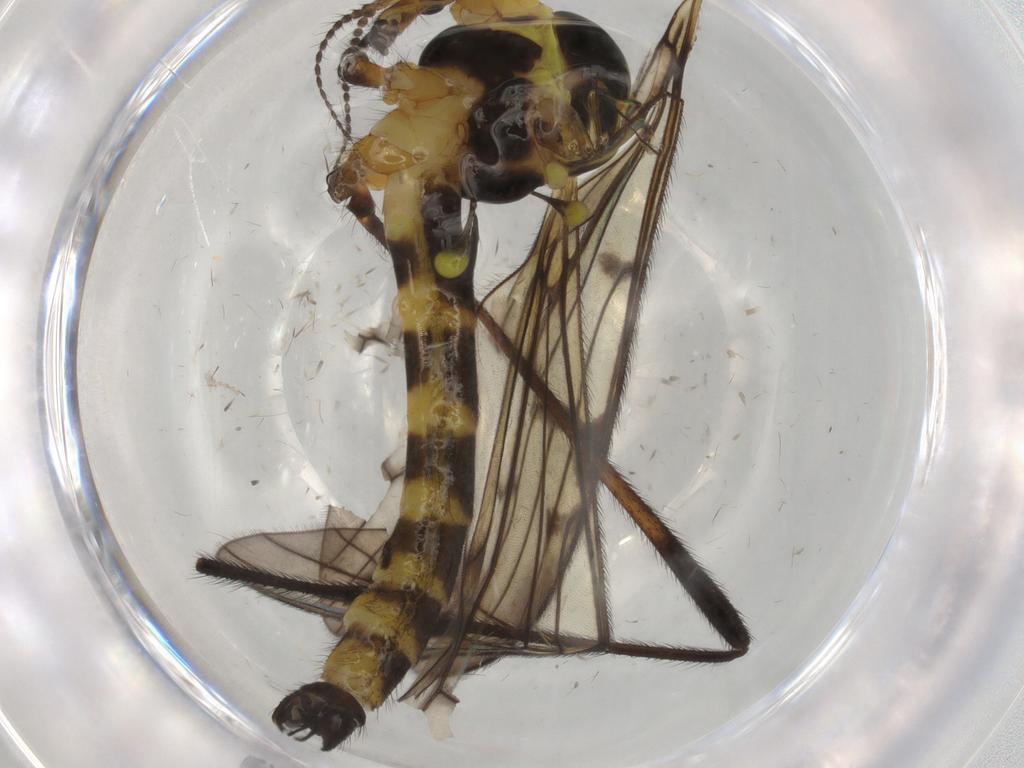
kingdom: Animalia
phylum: Arthropoda
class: Insecta
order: Diptera
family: Limoniidae
